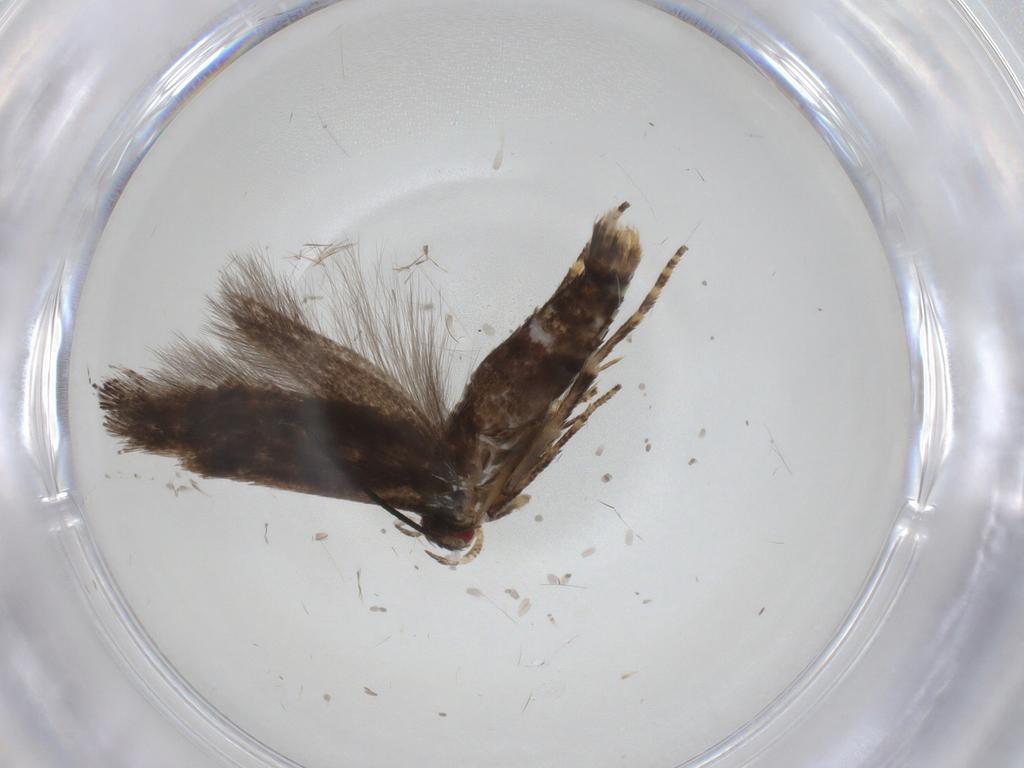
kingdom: Animalia
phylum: Arthropoda
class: Insecta
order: Lepidoptera
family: Momphidae
